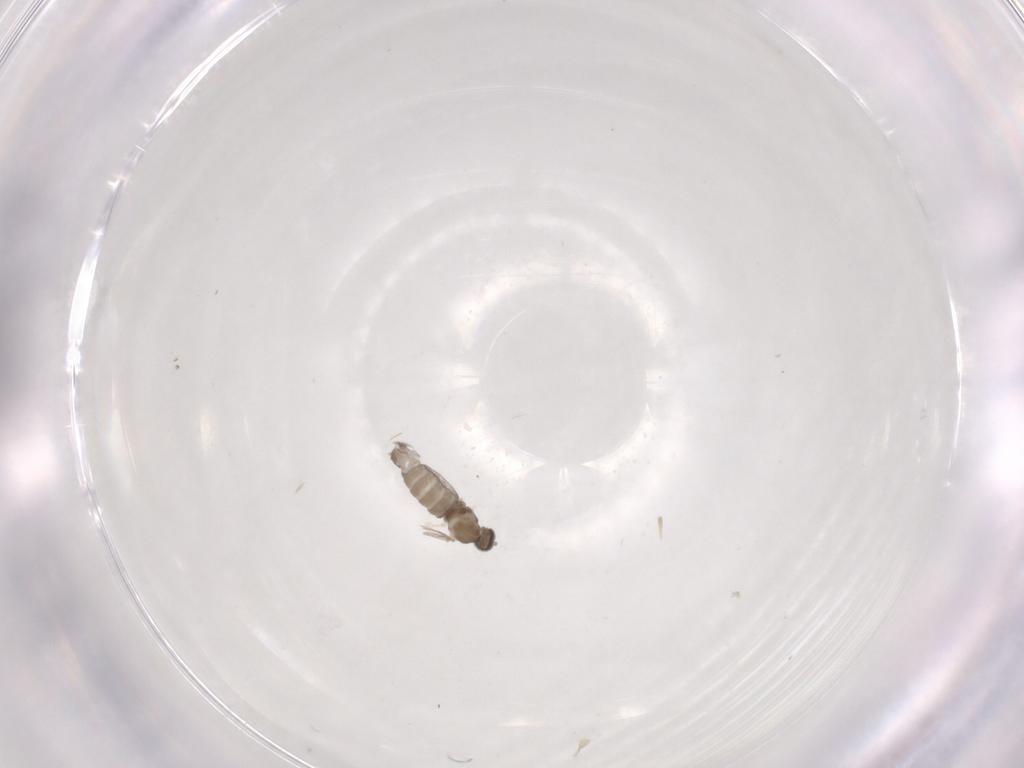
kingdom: Animalia
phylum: Arthropoda
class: Insecta
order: Diptera
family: Cecidomyiidae
